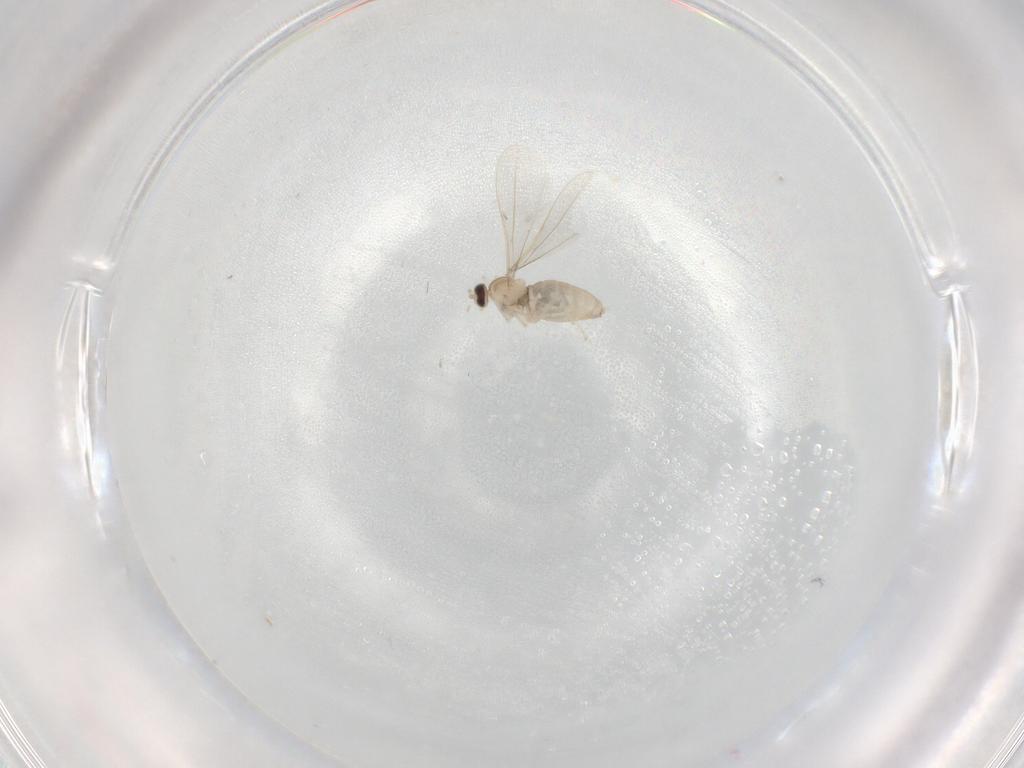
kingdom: Animalia
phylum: Arthropoda
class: Insecta
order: Diptera
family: Cecidomyiidae
